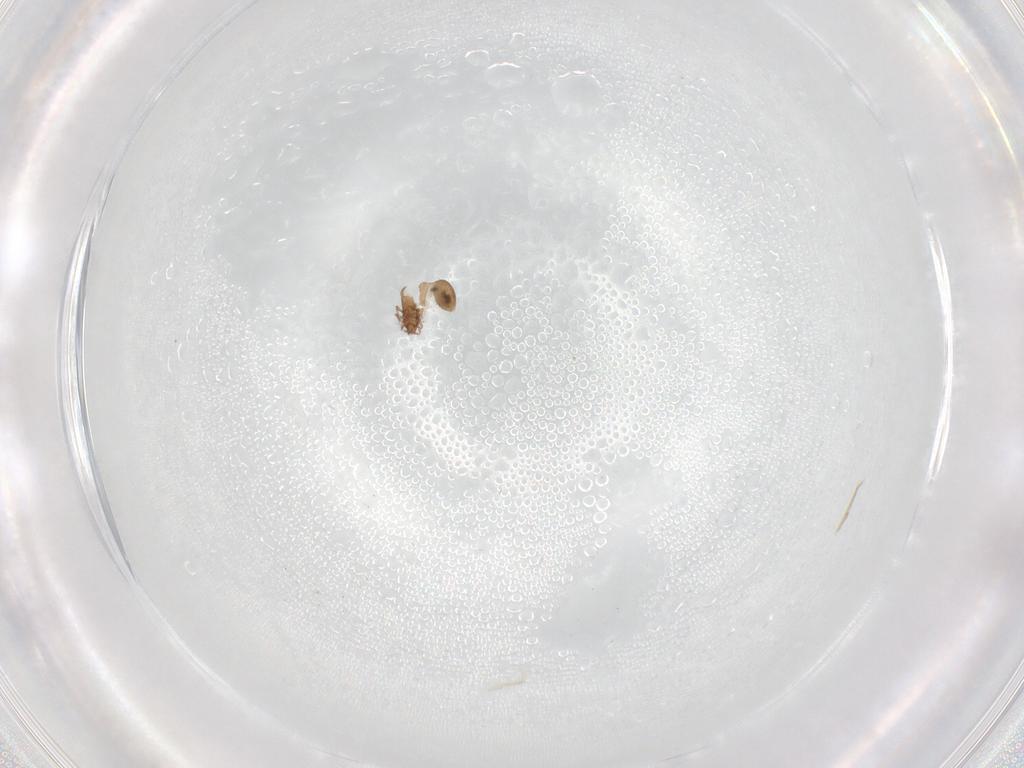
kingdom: Animalia
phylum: Arthropoda
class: Arachnida
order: Sarcoptiformes
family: Oribatulidae
